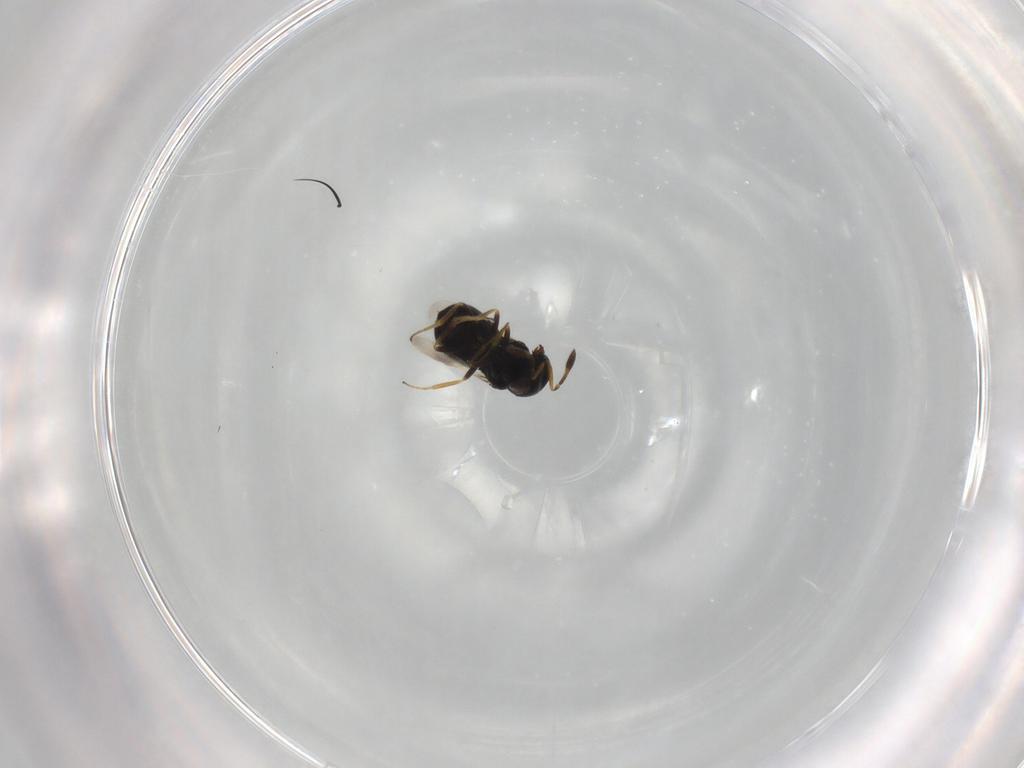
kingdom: Animalia
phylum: Arthropoda
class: Insecta
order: Hymenoptera
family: Scelionidae
